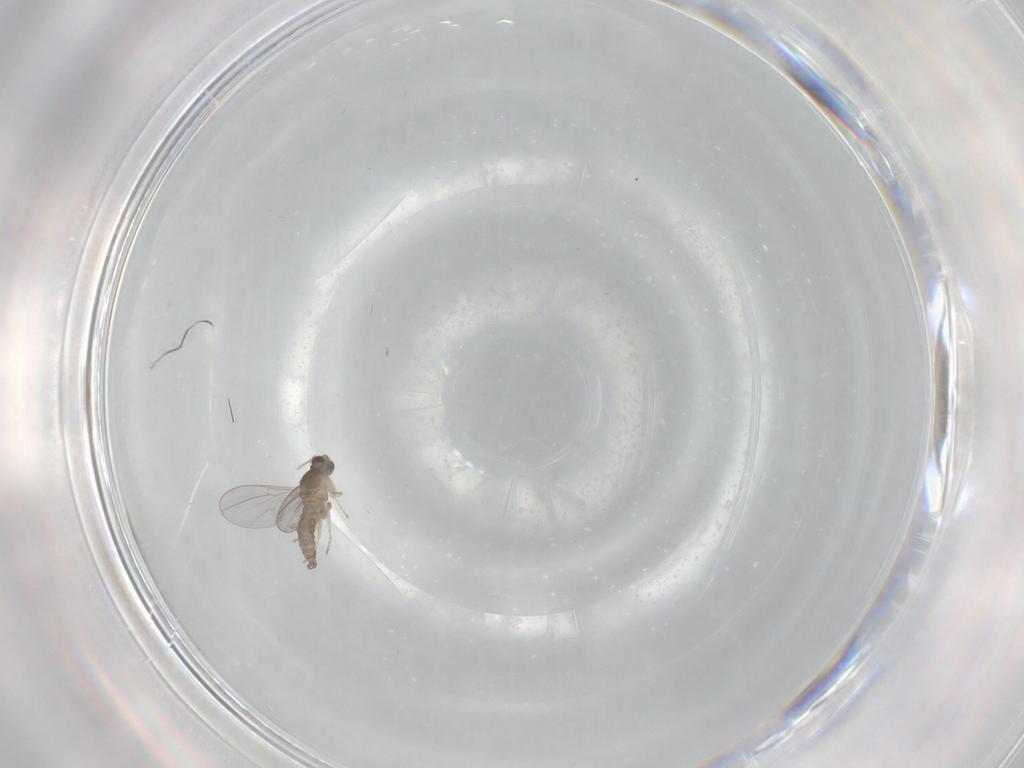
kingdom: Animalia
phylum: Arthropoda
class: Insecta
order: Diptera
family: Cecidomyiidae
